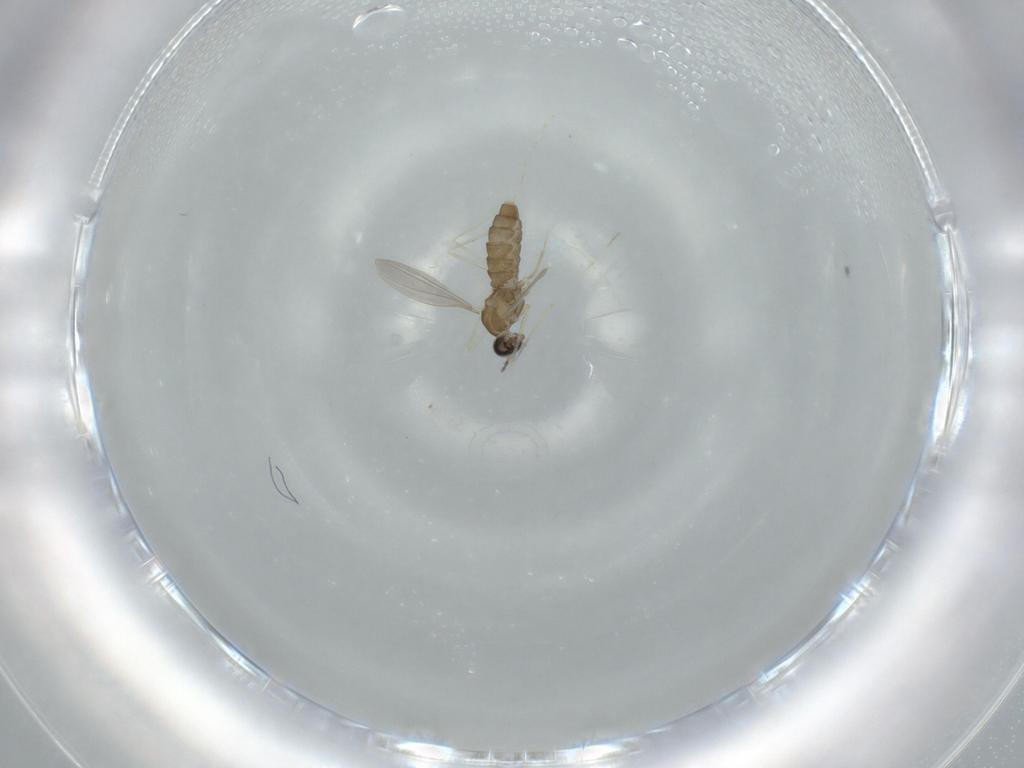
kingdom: Animalia
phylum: Arthropoda
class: Insecta
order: Diptera
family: Cecidomyiidae
